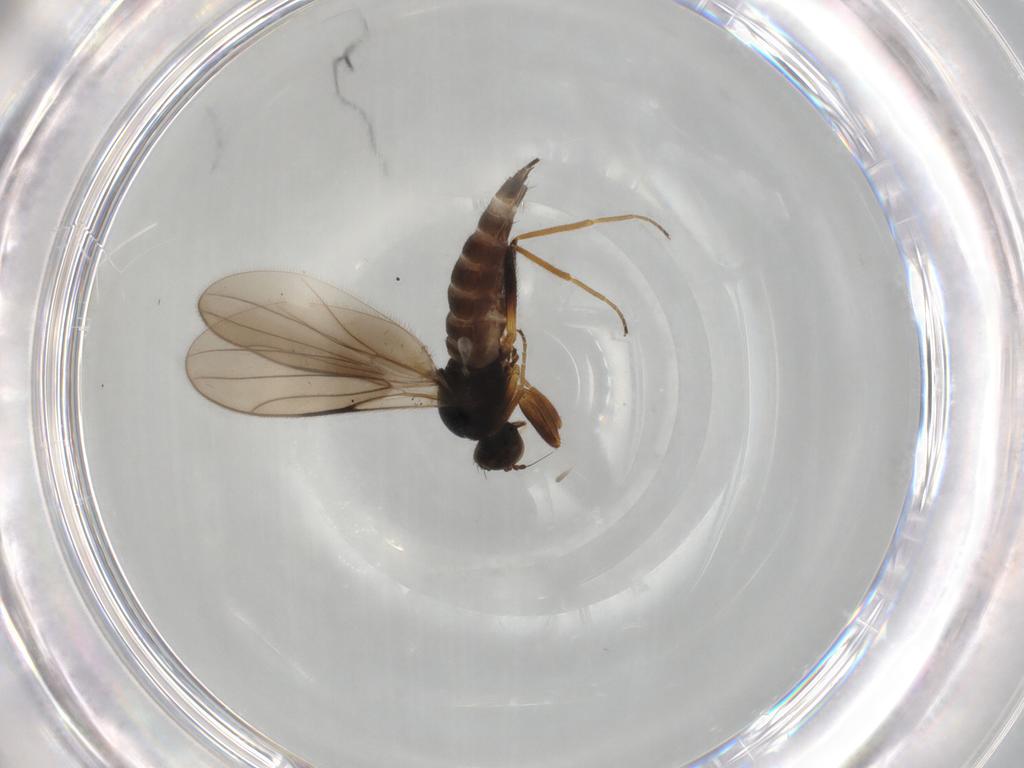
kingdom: Animalia
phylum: Arthropoda
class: Insecta
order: Diptera
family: Hybotidae
